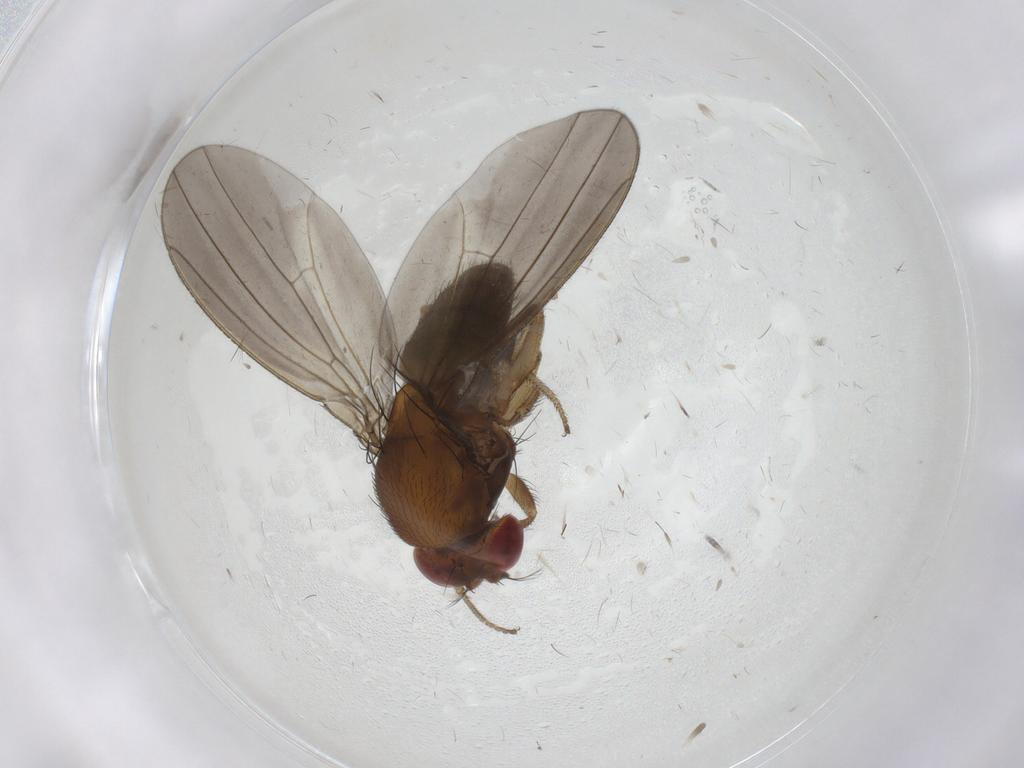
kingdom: Animalia
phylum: Arthropoda
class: Insecta
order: Diptera
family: Drosophilidae
